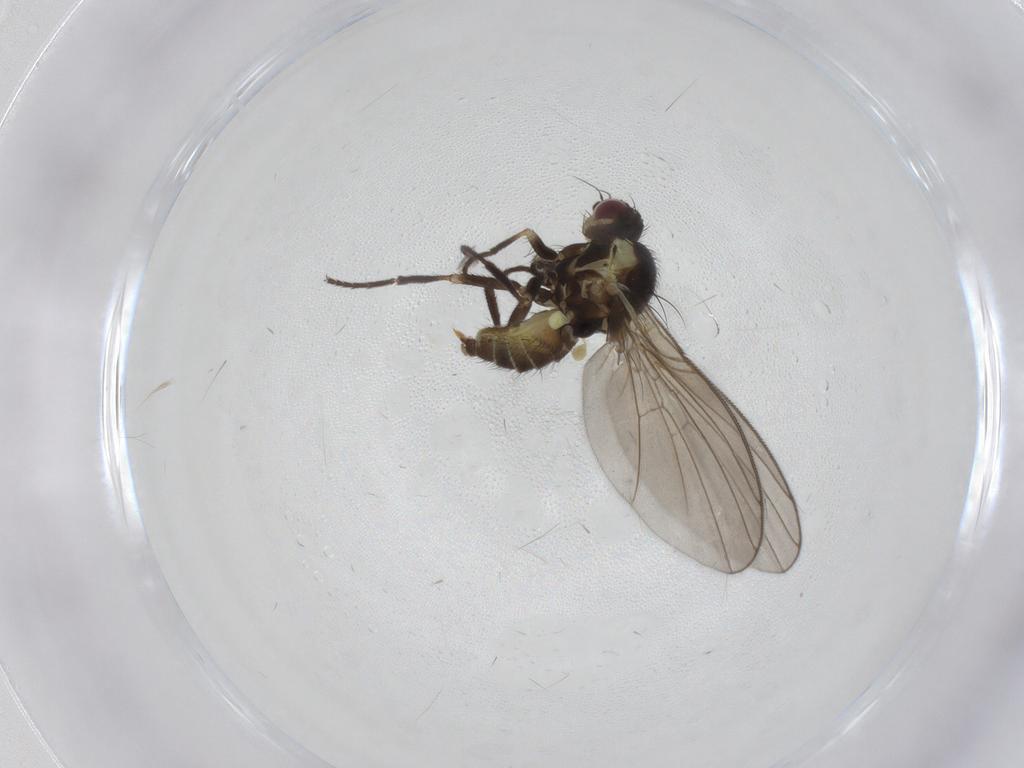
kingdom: Animalia
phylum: Arthropoda
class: Insecta
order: Diptera
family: Agromyzidae
